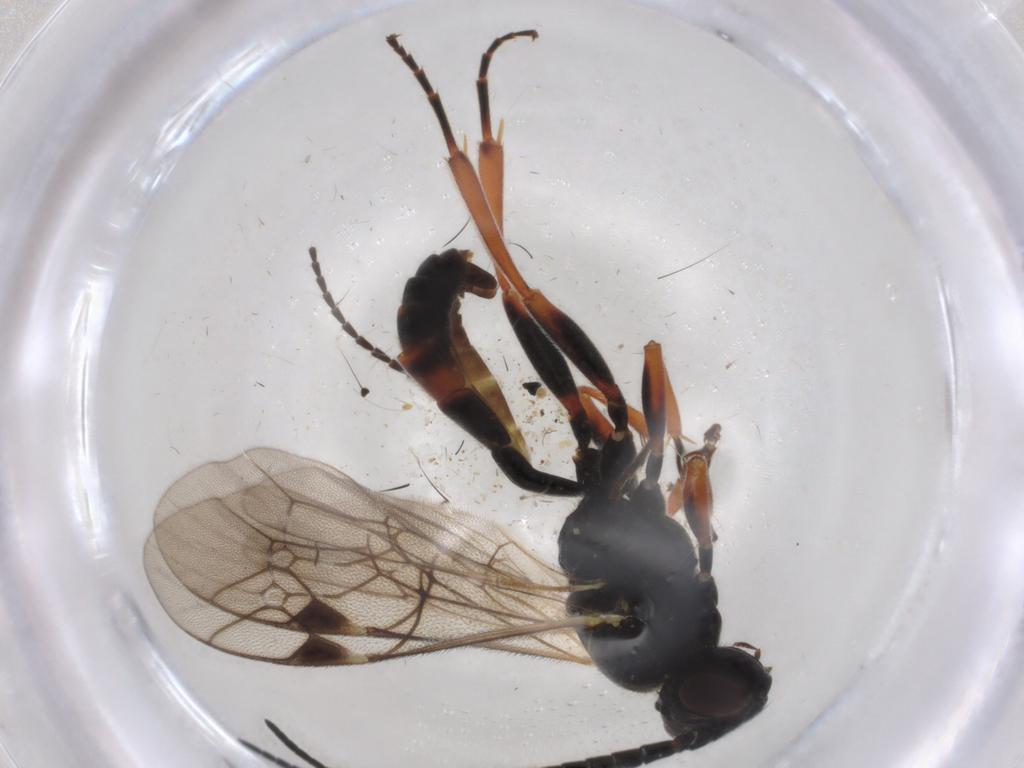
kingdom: Animalia
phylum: Arthropoda
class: Insecta
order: Hymenoptera
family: Ichneumonidae
